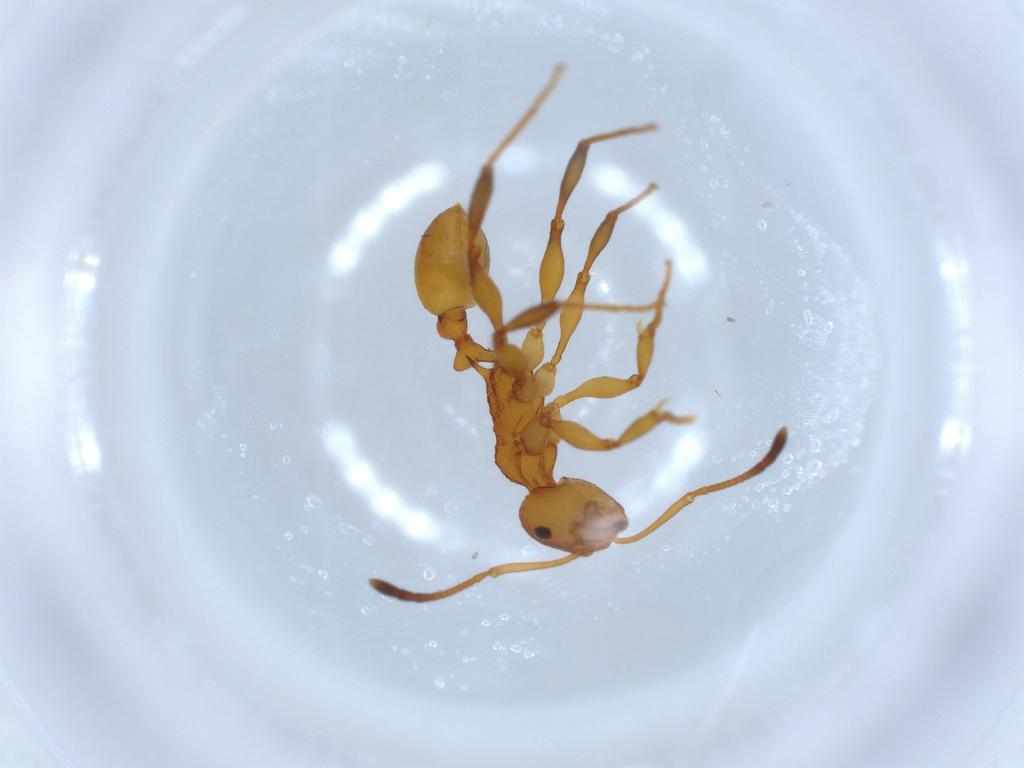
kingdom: Animalia
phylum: Arthropoda
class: Insecta
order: Hymenoptera
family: Formicidae
